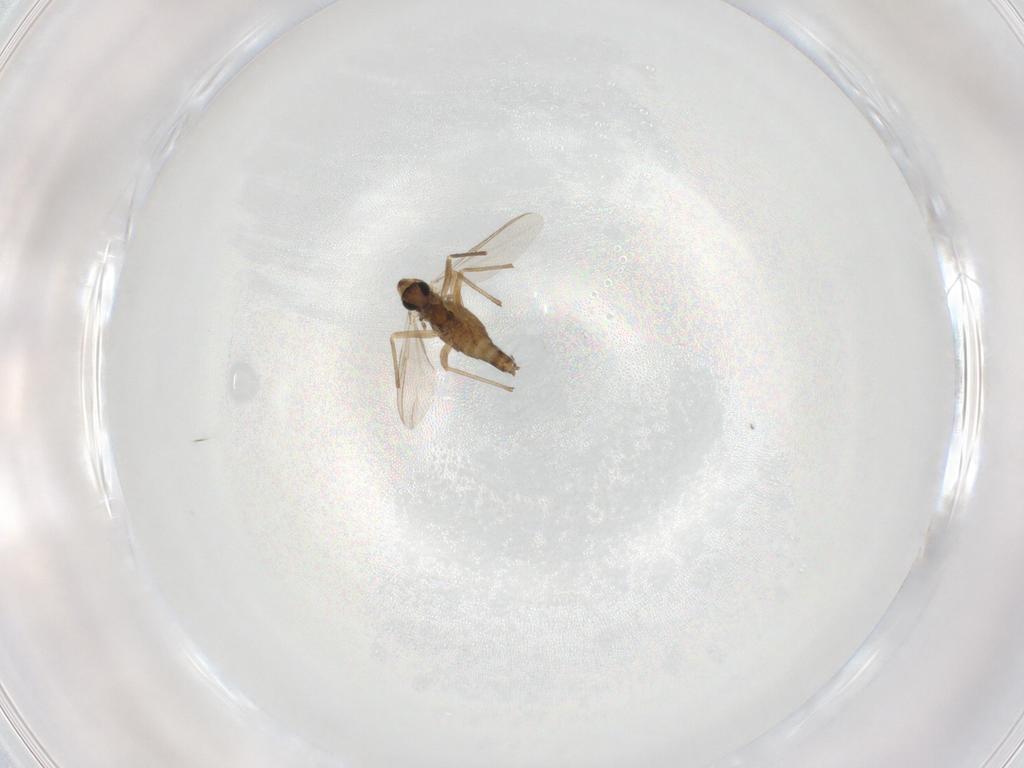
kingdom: Animalia
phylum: Arthropoda
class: Insecta
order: Diptera
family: Chironomidae
